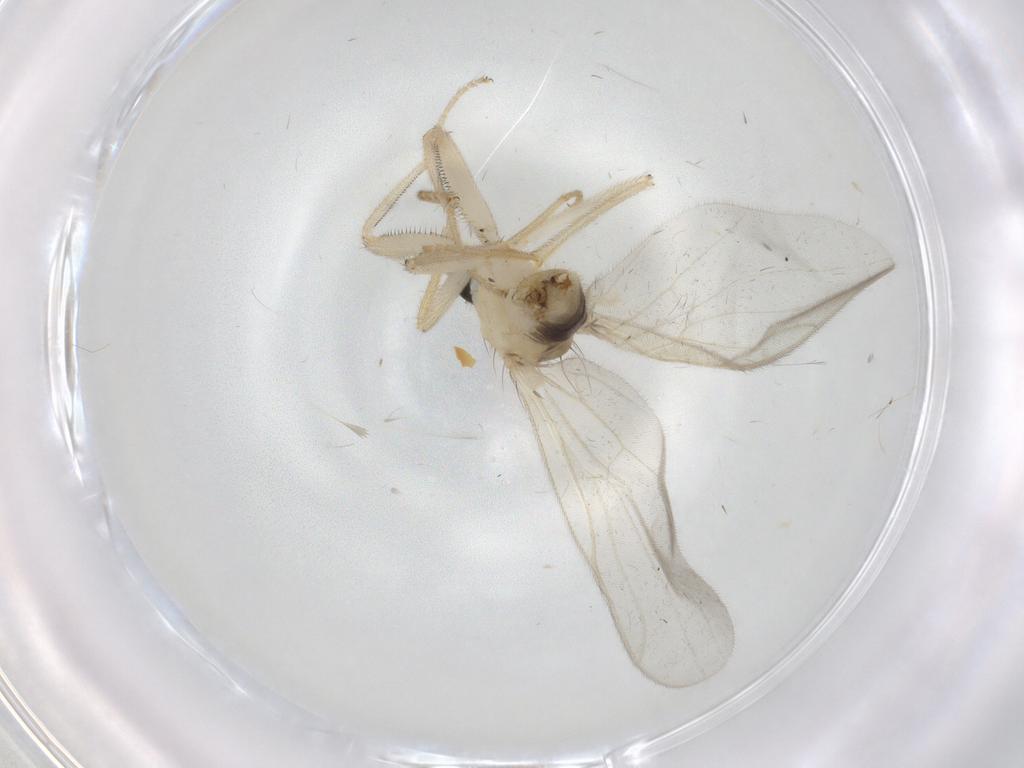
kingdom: Animalia
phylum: Arthropoda
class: Insecta
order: Diptera
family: Hybotidae
